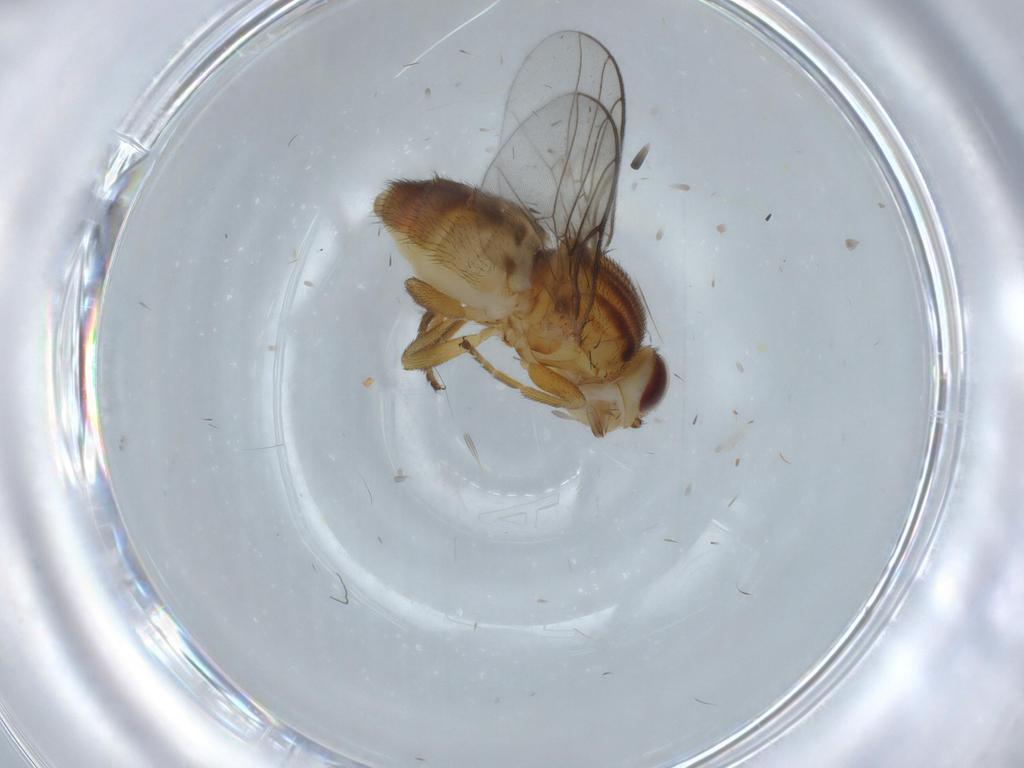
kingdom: Animalia
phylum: Arthropoda
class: Insecta
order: Diptera
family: Chloropidae
